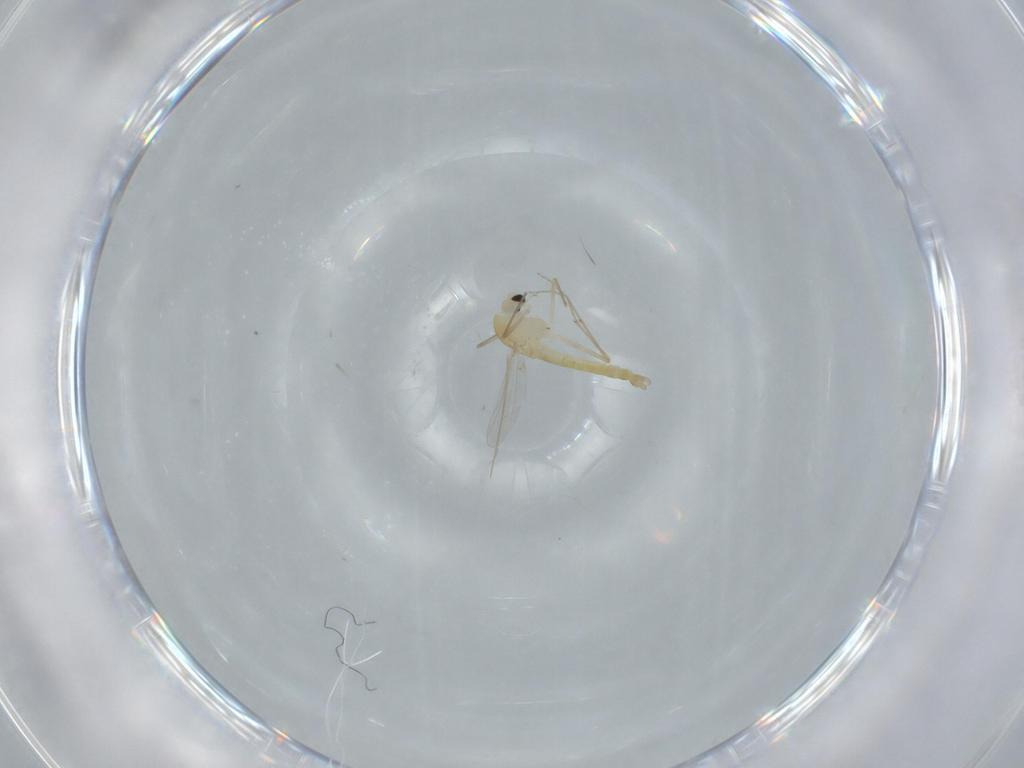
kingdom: Animalia
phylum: Arthropoda
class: Insecta
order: Diptera
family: Chironomidae
